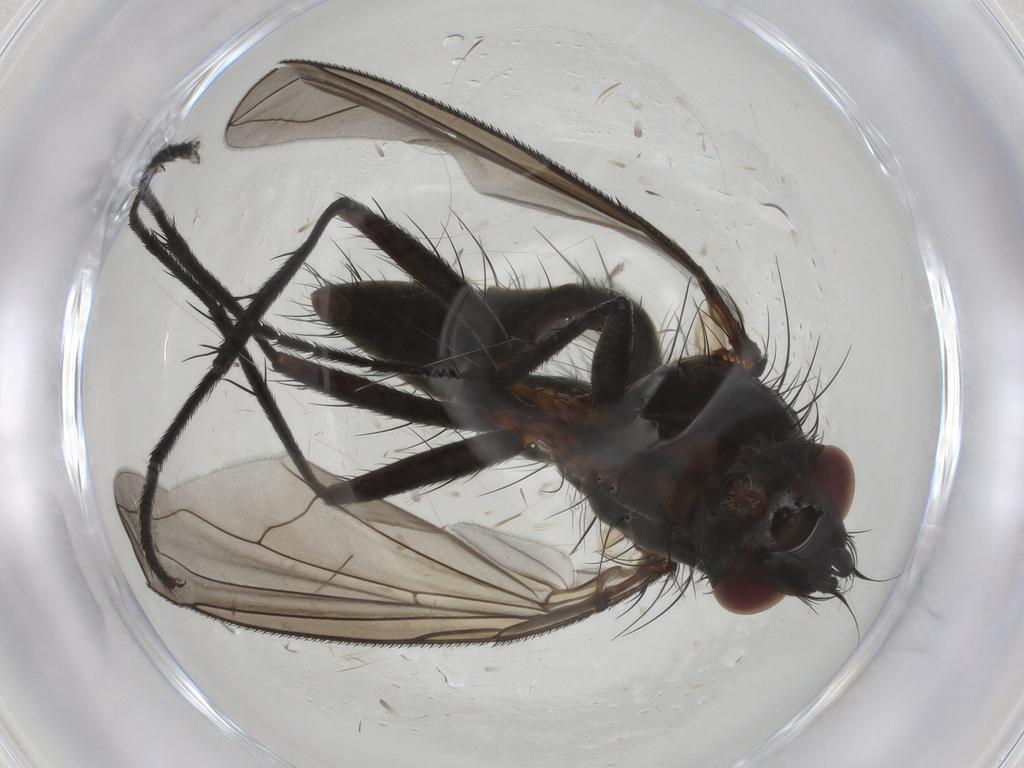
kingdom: Animalia
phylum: Arthropoda
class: Insecta
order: Diptera
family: Tachinidae
